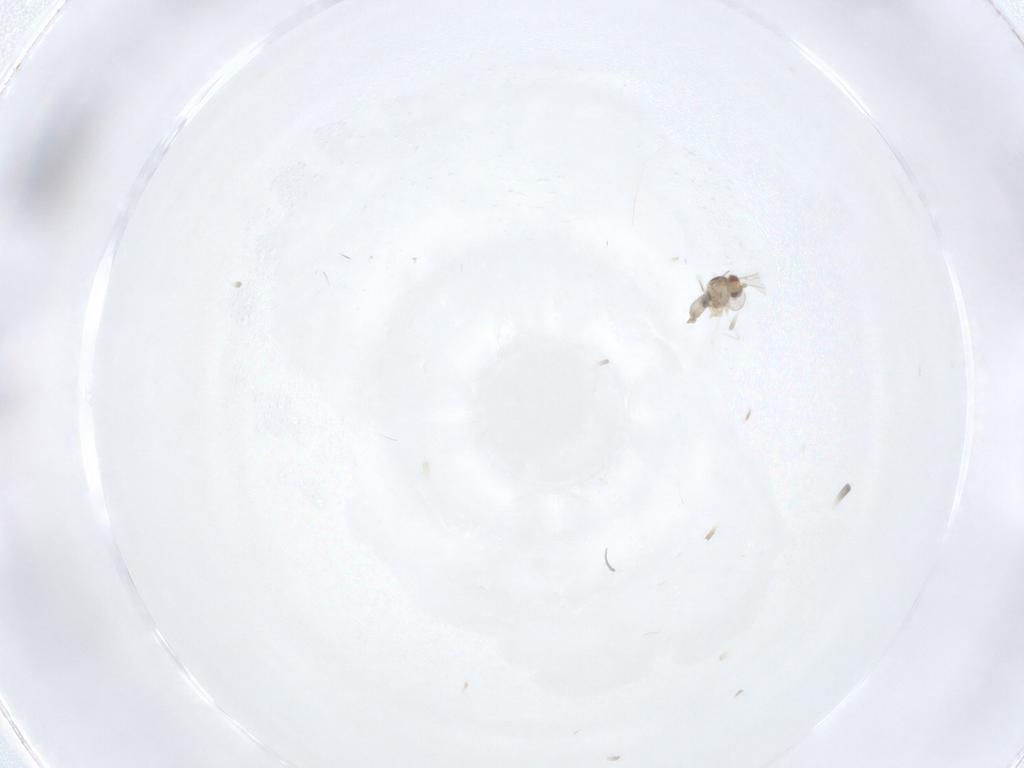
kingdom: Animalia
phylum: Arthropoda
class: Insecta
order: Diptera
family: Cecidomyiidae
